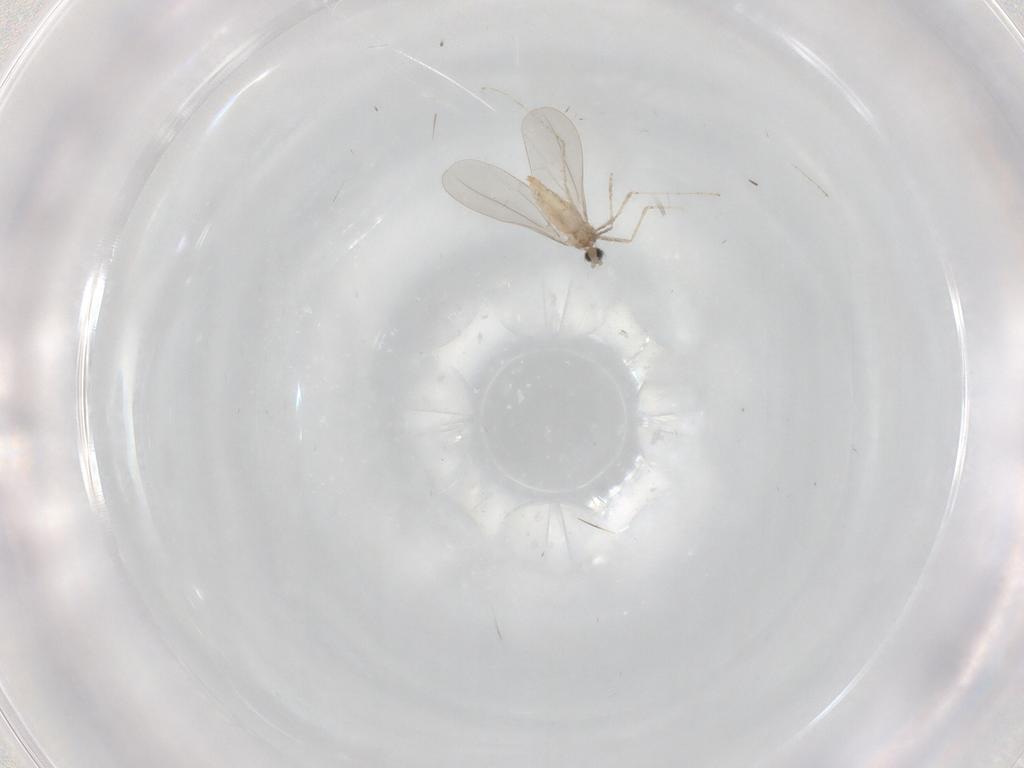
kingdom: Animalia
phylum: Arthropoda
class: Insecta
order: Diptera
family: Cecidomyiidae
